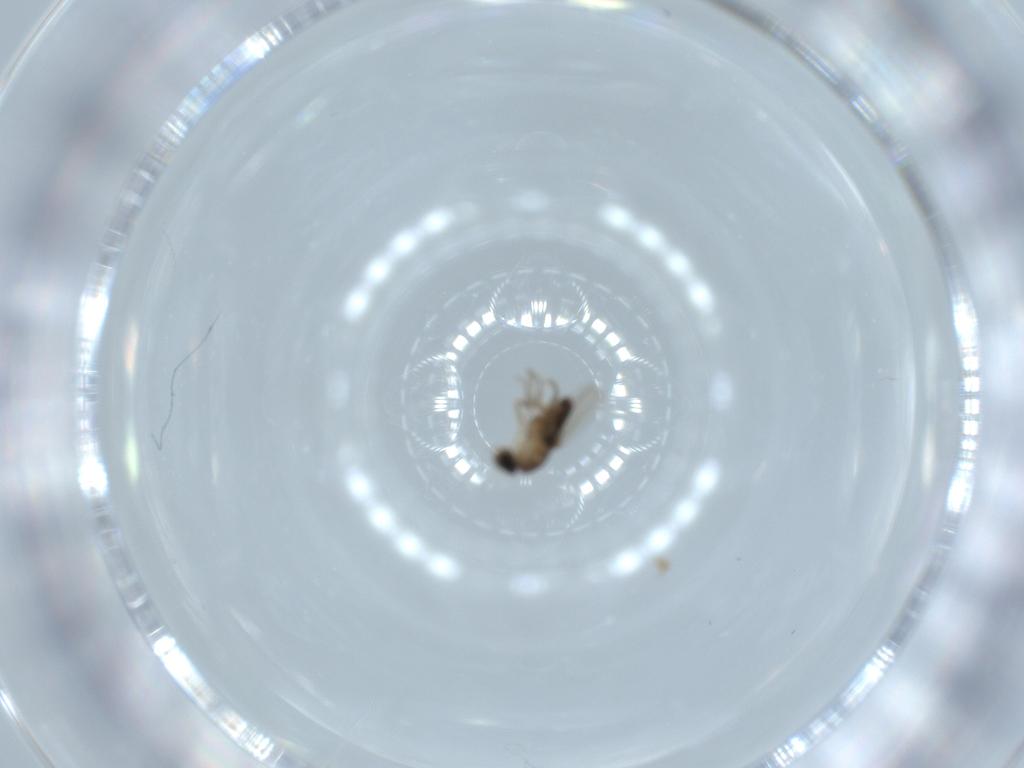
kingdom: Animalia
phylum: Arthropoda
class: Insecta
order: Diptera
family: Phoridae
